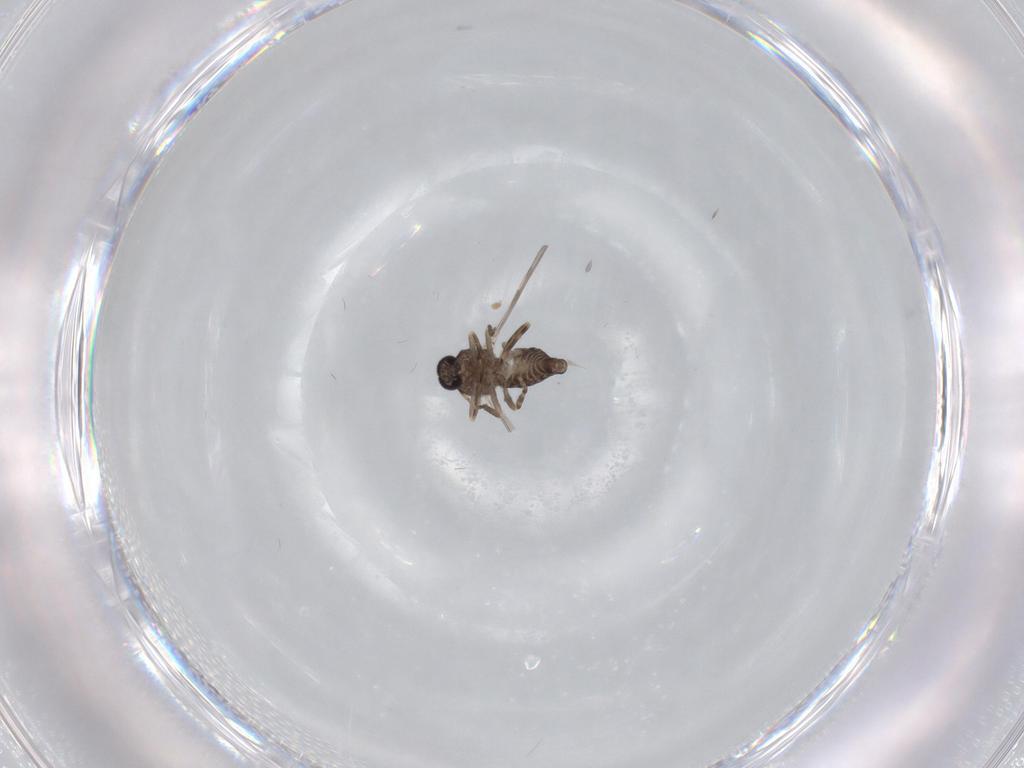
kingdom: Animalia
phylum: Arthropoda
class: Insecta
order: Diptera
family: Ceratopogonidae
